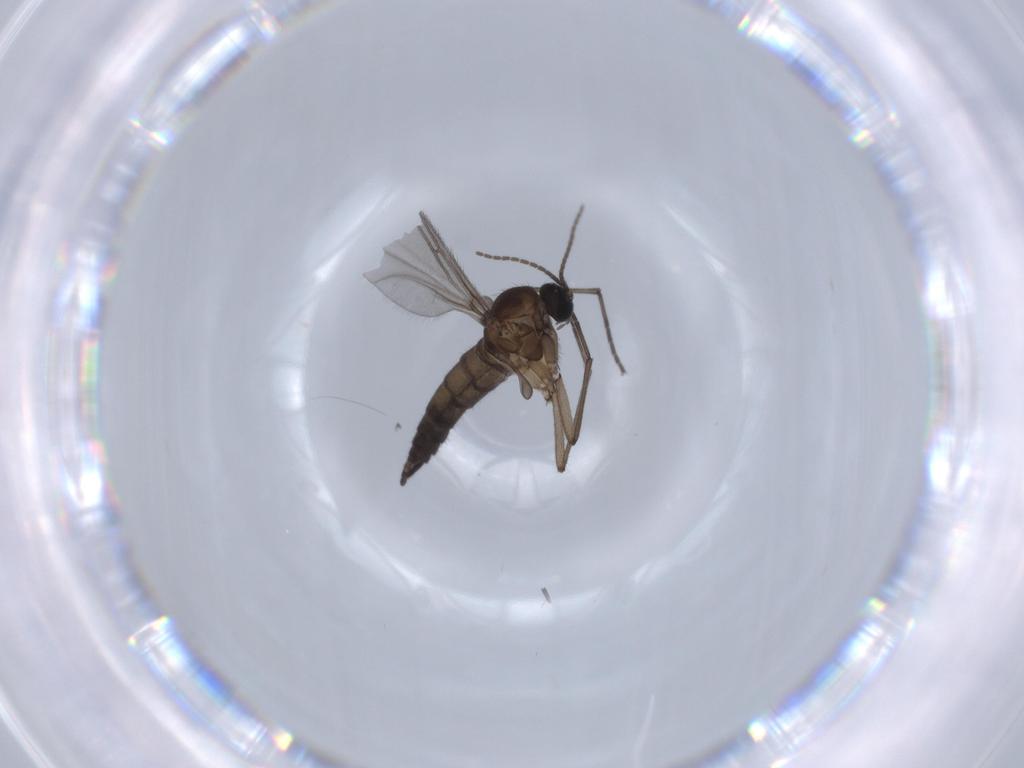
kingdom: Animalia
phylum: Arthropoda
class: Insecta
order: Diptera
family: Sciaridae
